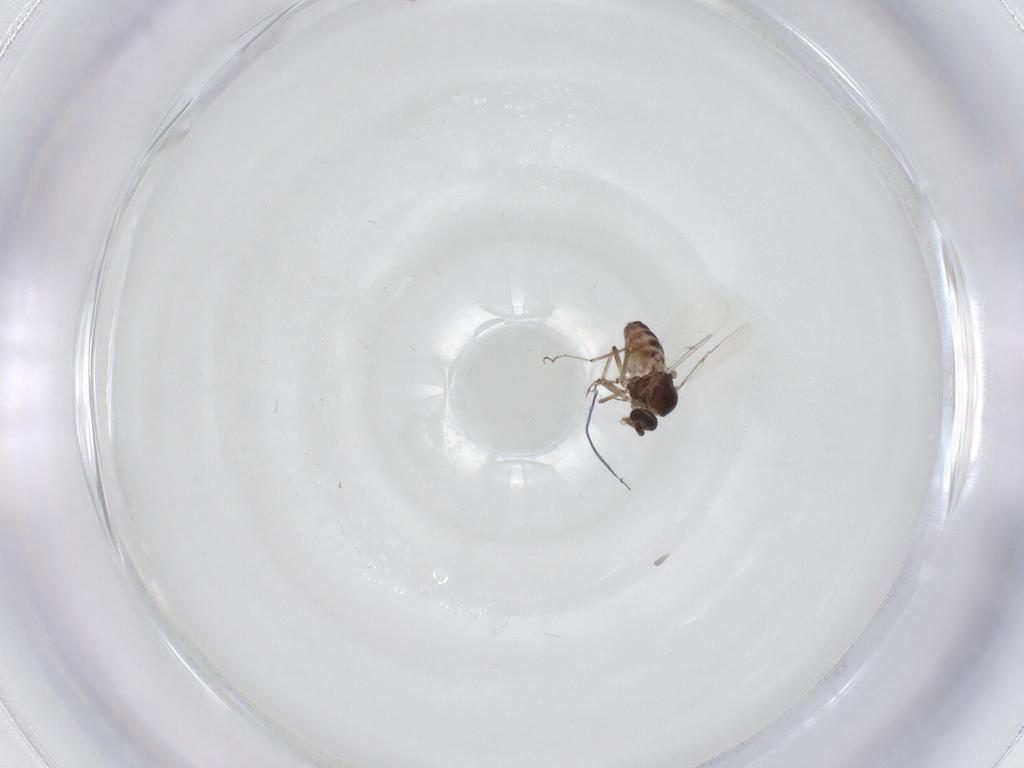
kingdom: Animalia
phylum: Arthropoda
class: Insecta
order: Diptera
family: Ceratopogonidae
